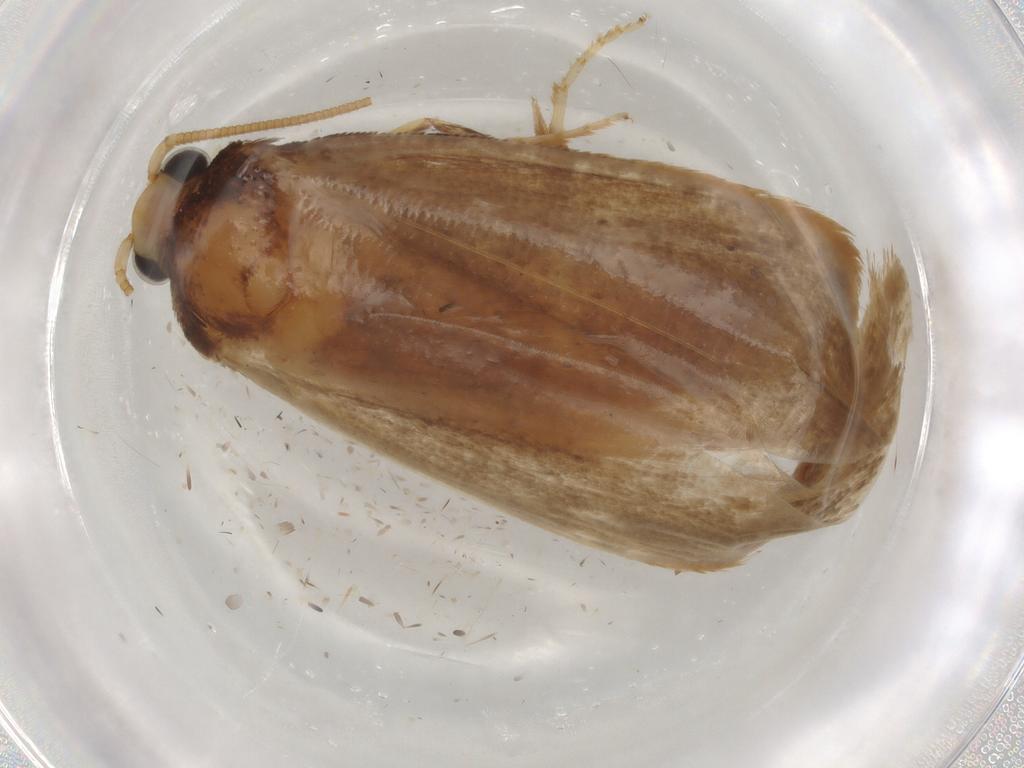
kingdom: Animalia
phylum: Arthropoda
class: Insecta
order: Lepidoptera
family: Tineidae
